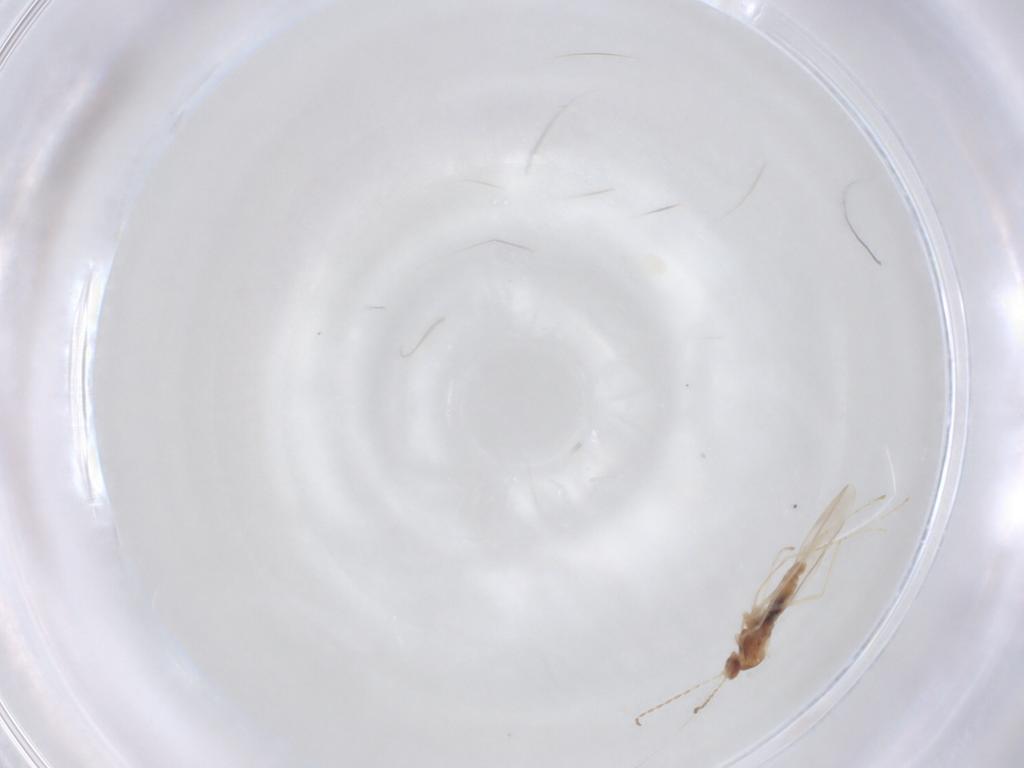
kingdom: Animalia
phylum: Arthropoda
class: Insecta
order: Diptera
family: Cecidomyiidae
